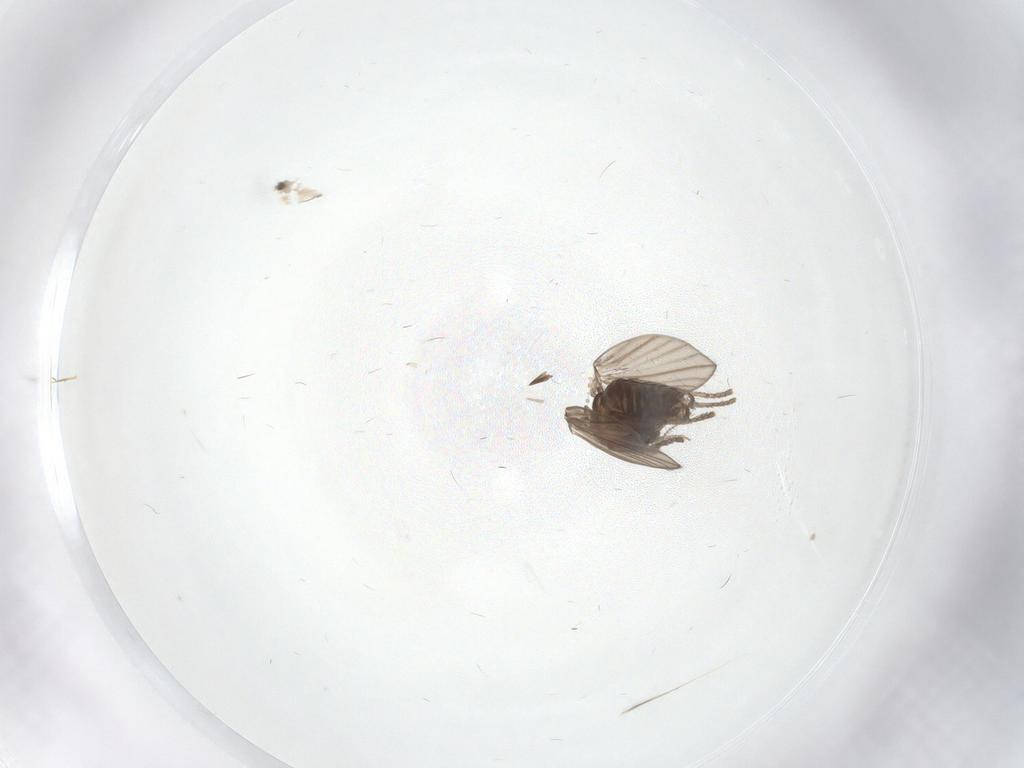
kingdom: Animalia
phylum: Arthropoda
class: Insecta
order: Diptera
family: Psychodidae
